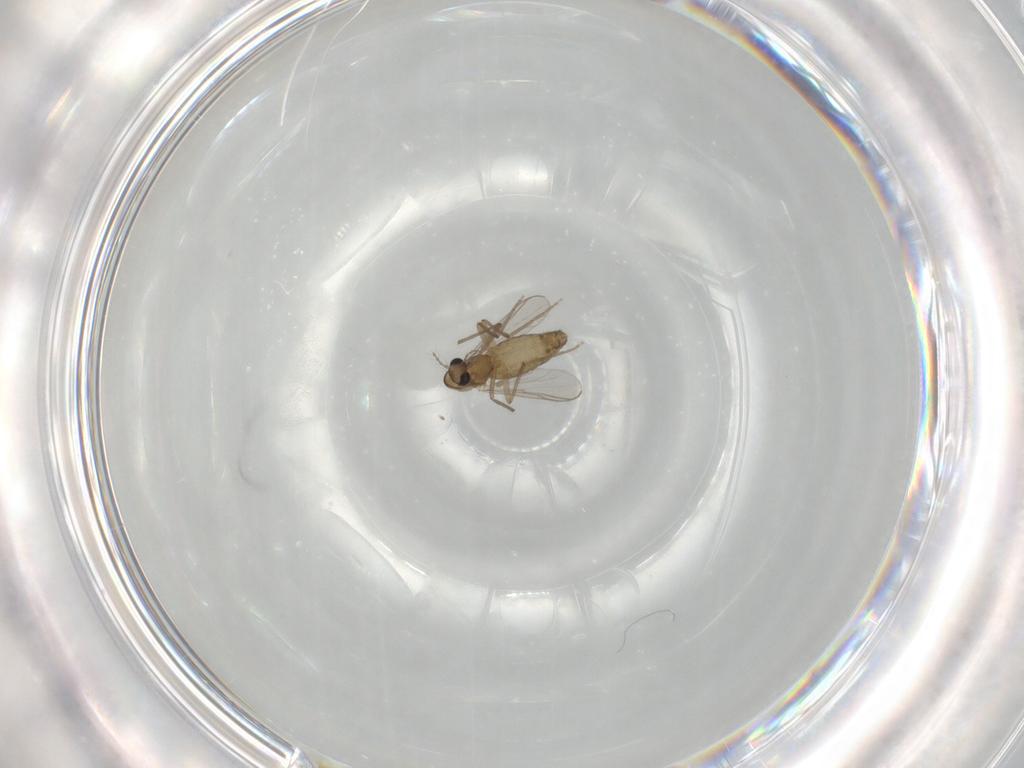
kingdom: Animalia
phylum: Arthropoda
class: Insecta
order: Diptera
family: Chironomidae
